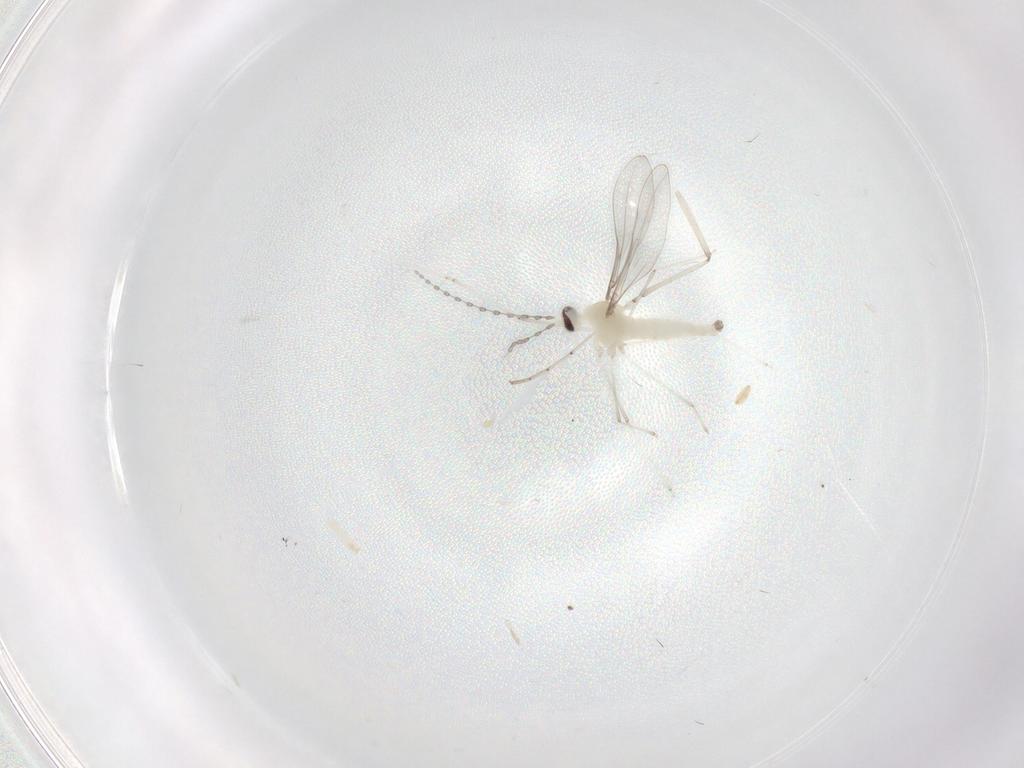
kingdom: Animalia
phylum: Arthropoda
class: Insecta
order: Diptera
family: Cecidomyiidae
